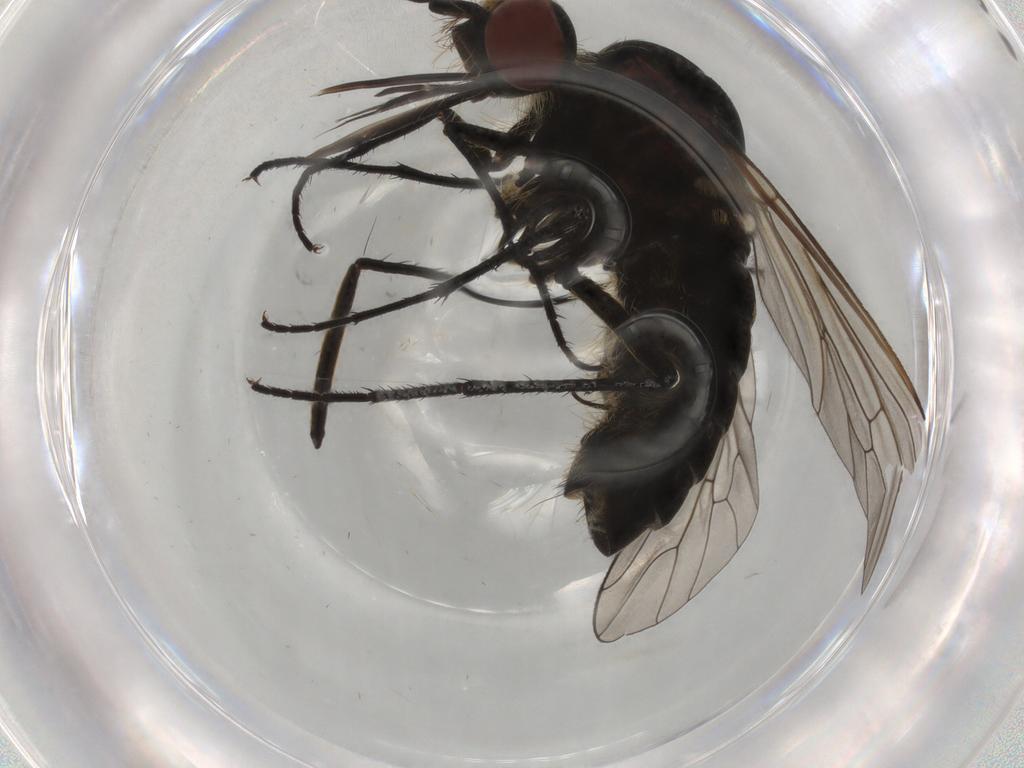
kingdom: Animalia
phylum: Arthropoda
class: Insecta
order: Diptera
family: Bombyliidae
